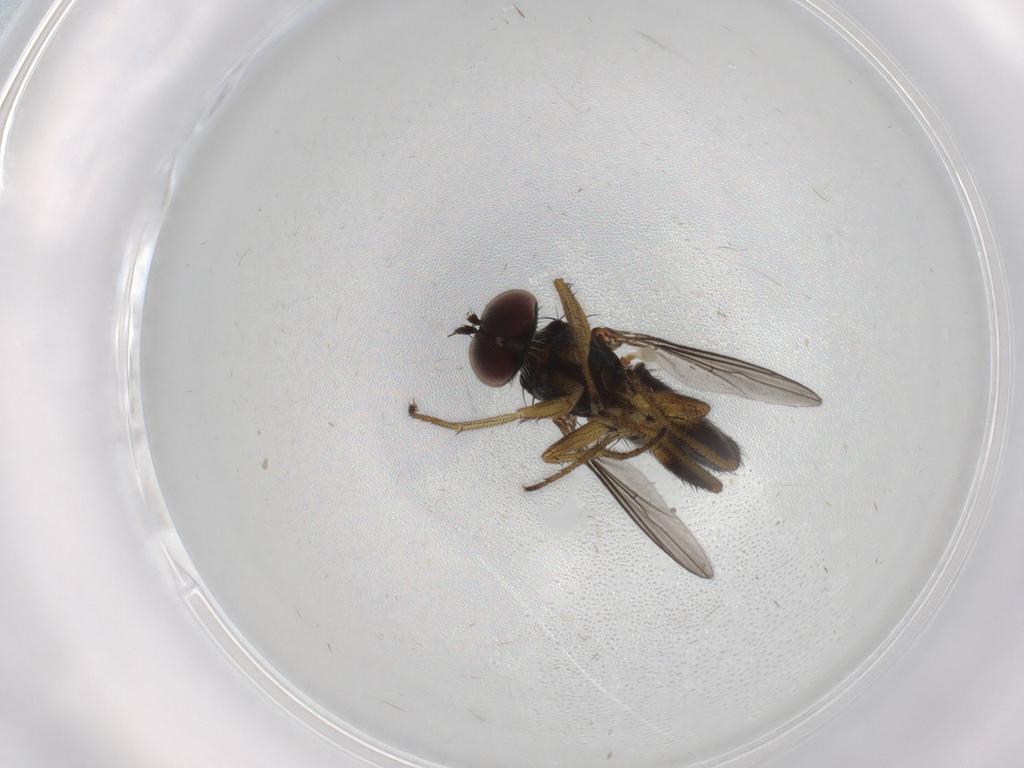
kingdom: Animalia
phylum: Arthropoda
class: Insecta
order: Diptera
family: Dolichopodidae
